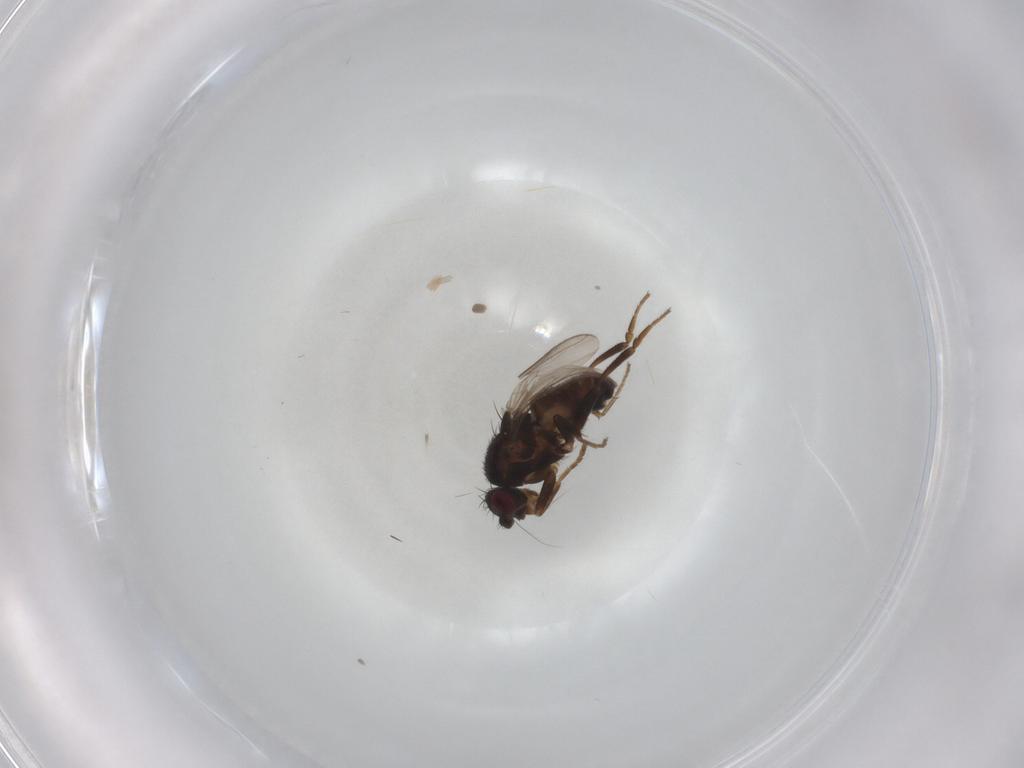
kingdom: Animalia
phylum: Arthropoda
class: Insecta
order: Diptera
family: Sphaeroceridae
